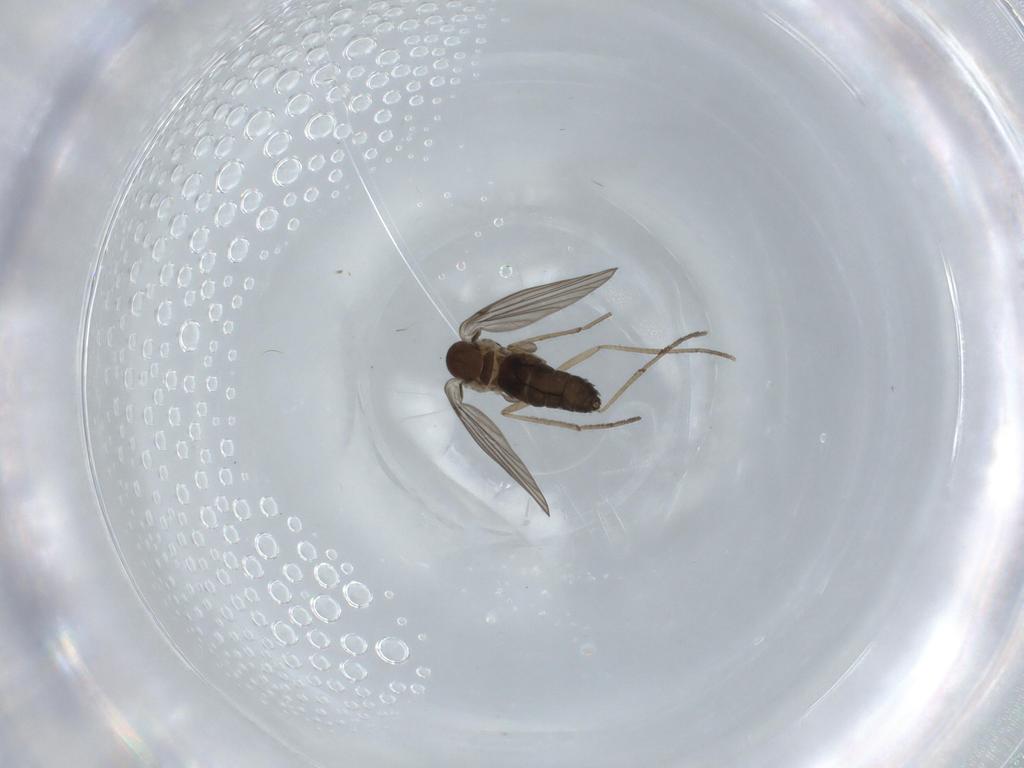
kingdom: Animalia
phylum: Arthropoda
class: Insecta
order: Diptera
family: Psychodidae
